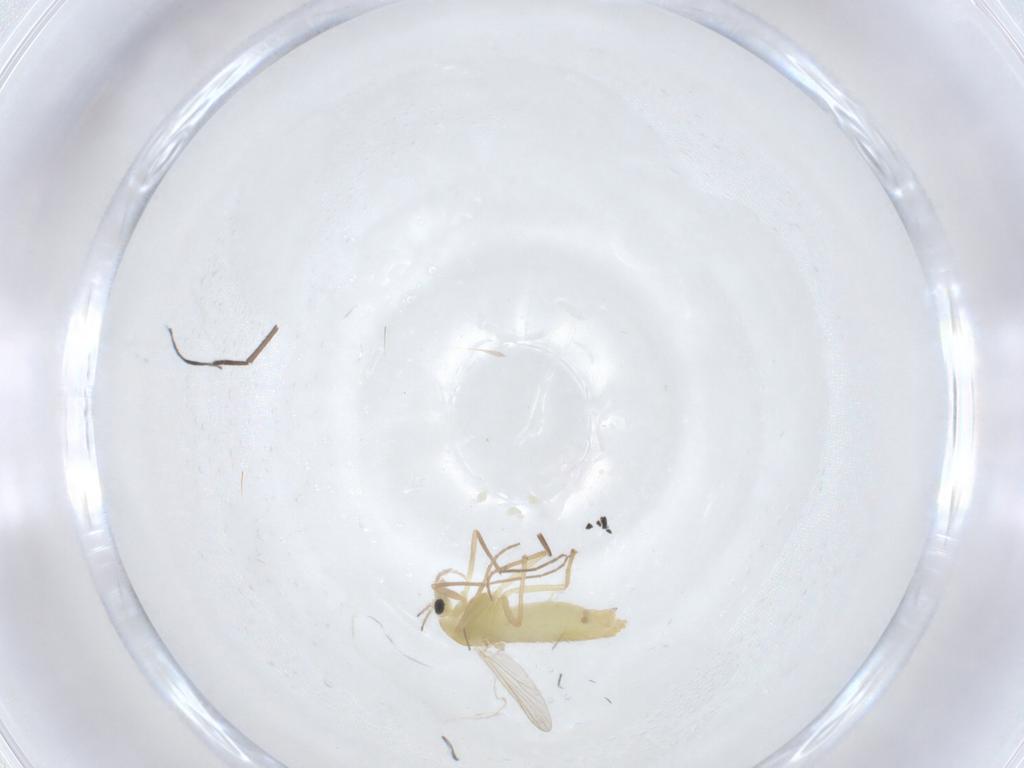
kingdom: Animalia
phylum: Arthropoda
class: Insecta
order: Diptera
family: Chironomidae
